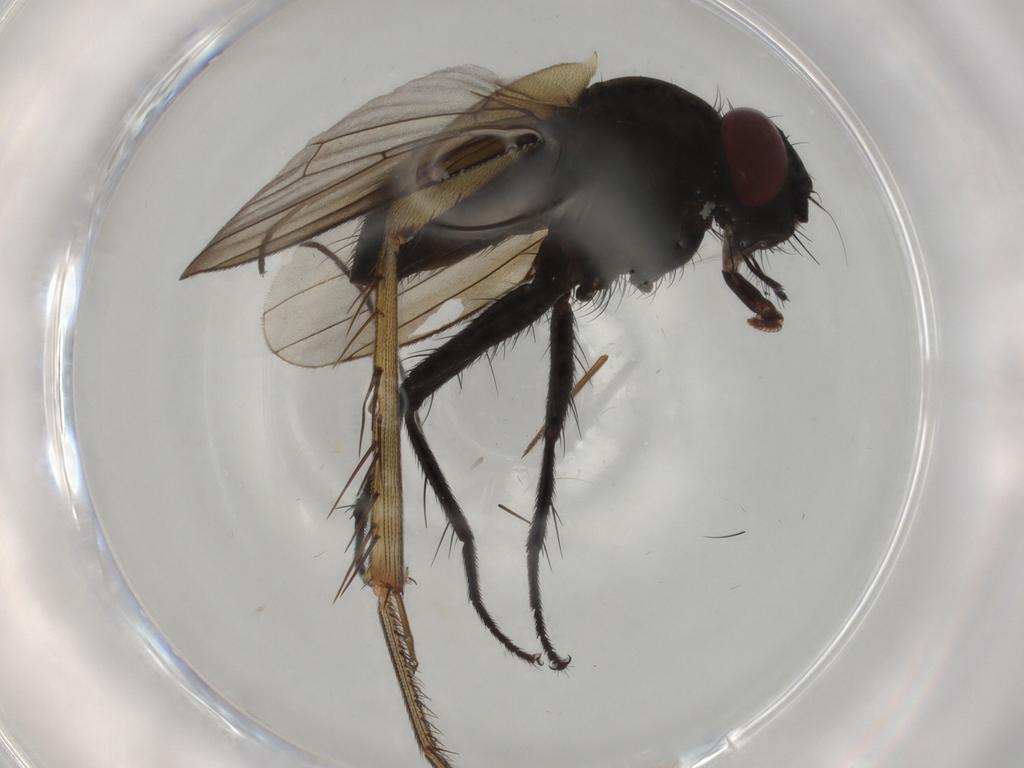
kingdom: Animalia
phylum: Arthropoda
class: Insecta
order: Diptera
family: Muscidae
